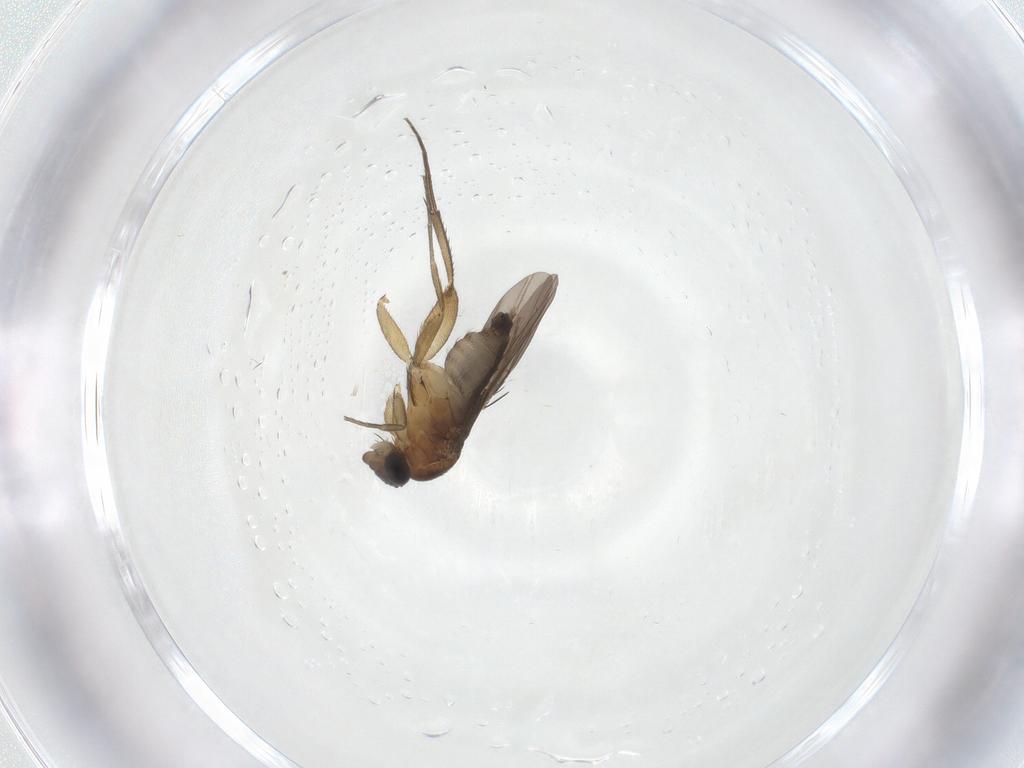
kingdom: Animalia
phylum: Arthropoda
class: Insecta
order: Diptera
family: Phoridae
